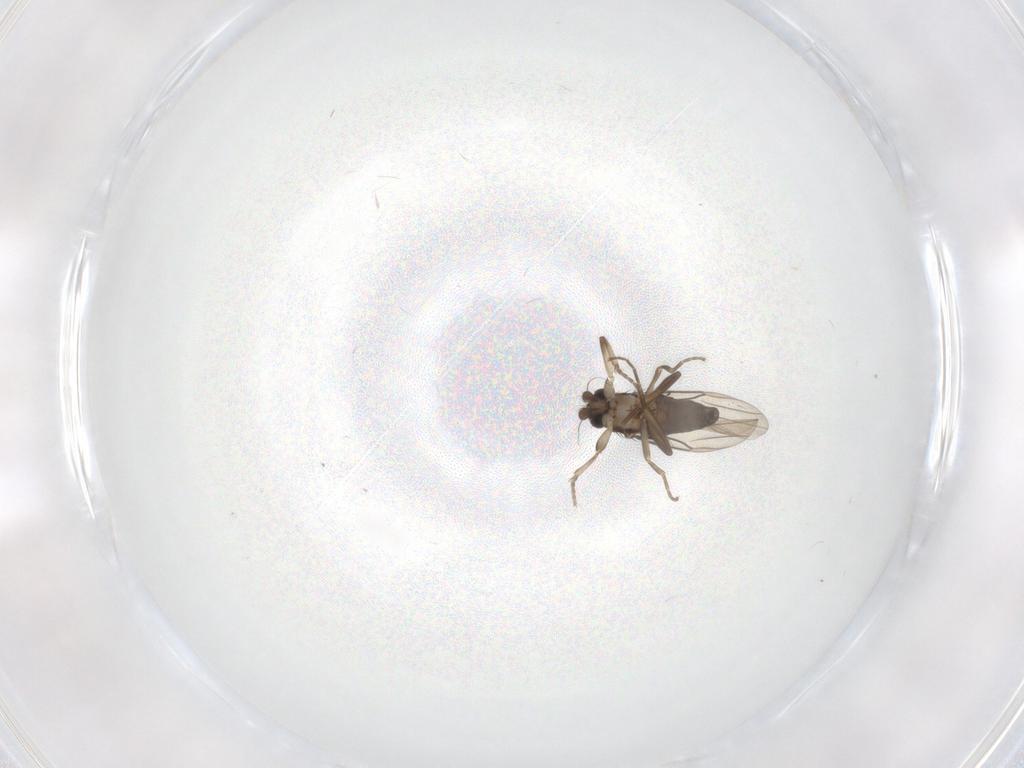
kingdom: Animalia
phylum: Arthropoda
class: Insecta
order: Diptera
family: Phoridae
